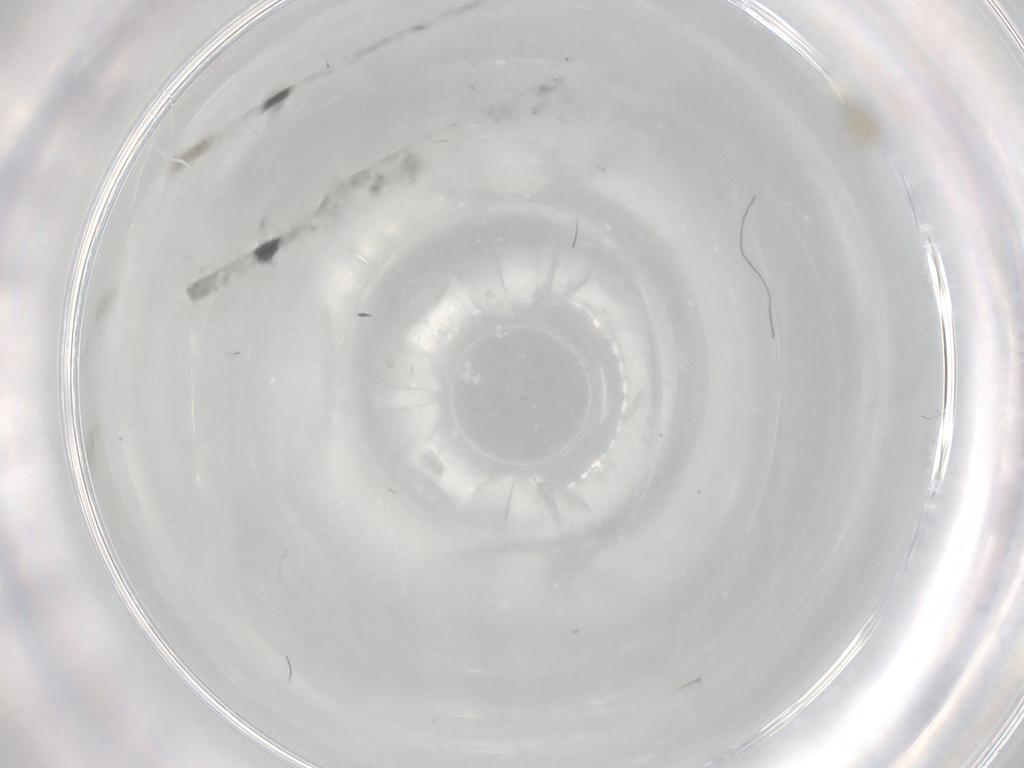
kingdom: Animalia
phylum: Arthropoda
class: Insecta
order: Diptera
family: Cecidomyiidae
